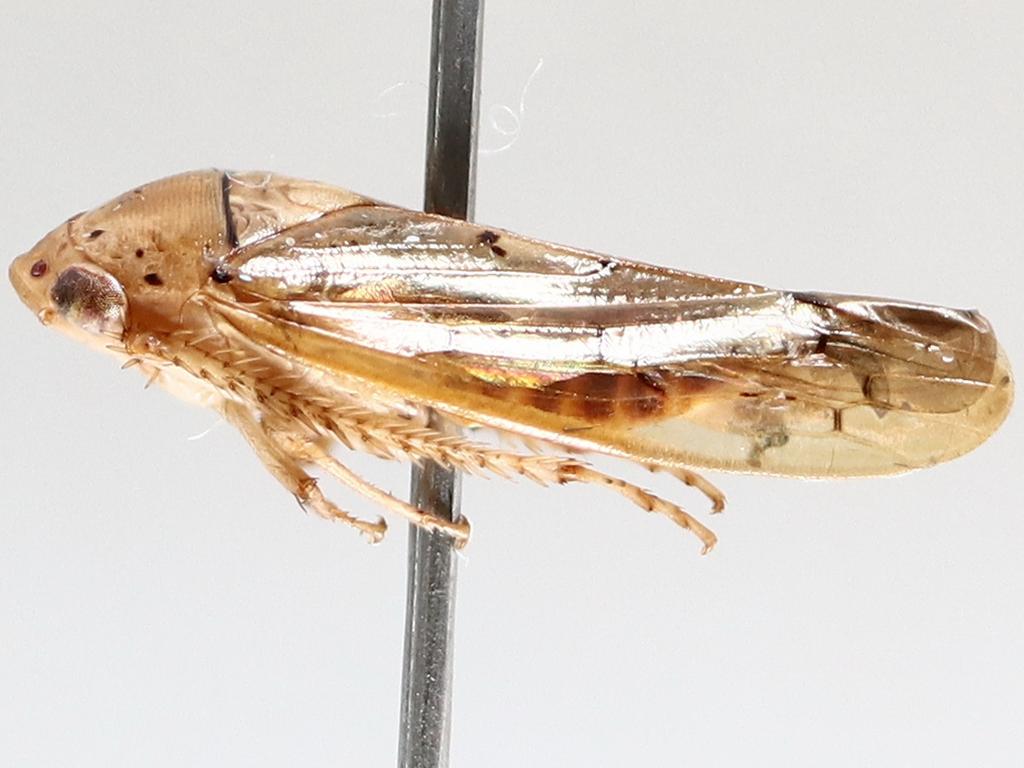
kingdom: Animalia
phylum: Arthropoda
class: Insecta
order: Diptera
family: Sciaridae
